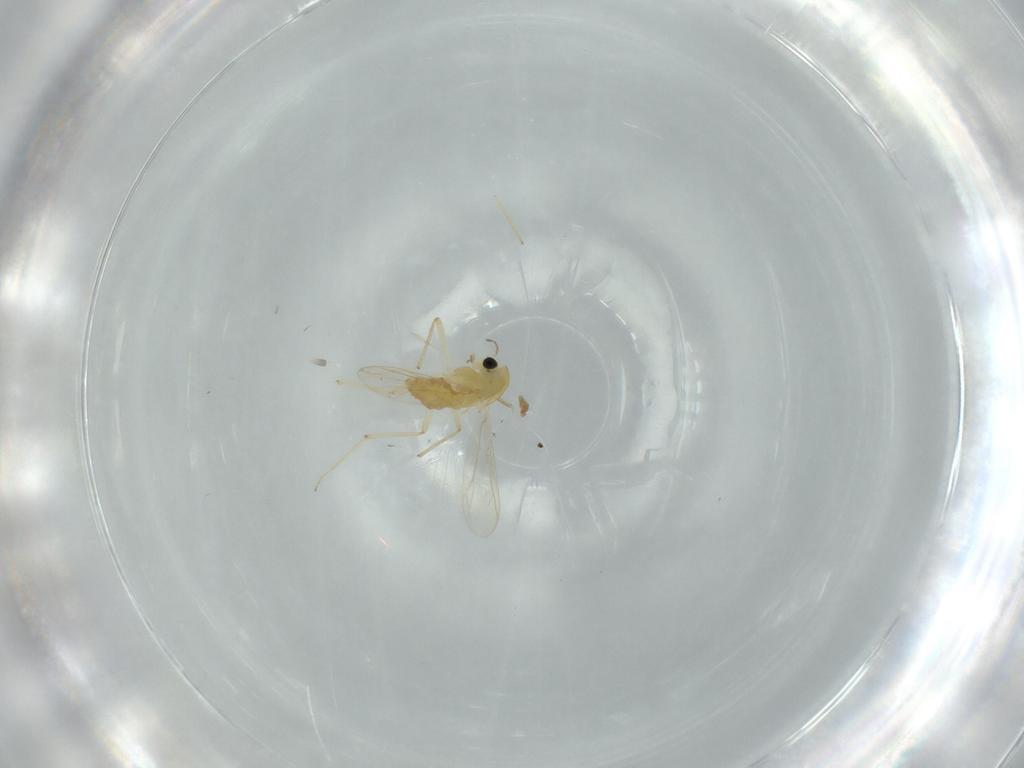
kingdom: Animalia
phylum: Arthropoda
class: Insecta
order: Diptera
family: Chironomidae
